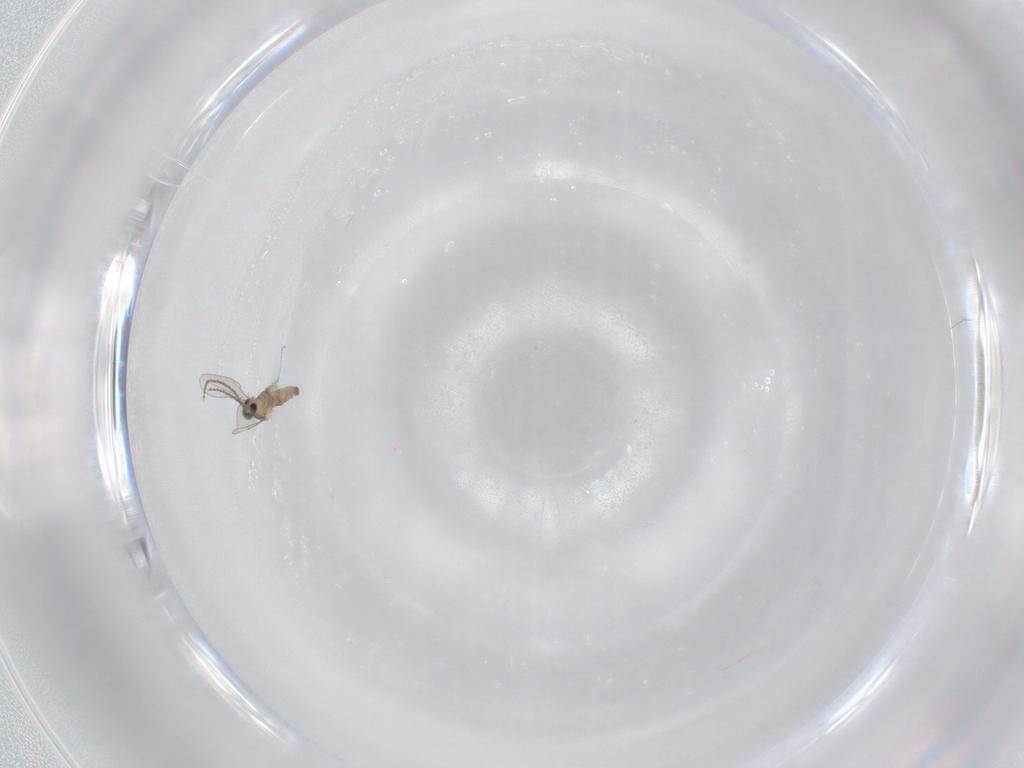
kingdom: Animalia
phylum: Arthropoda
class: Insecta
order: Diptera
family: Cecidomyiidae
